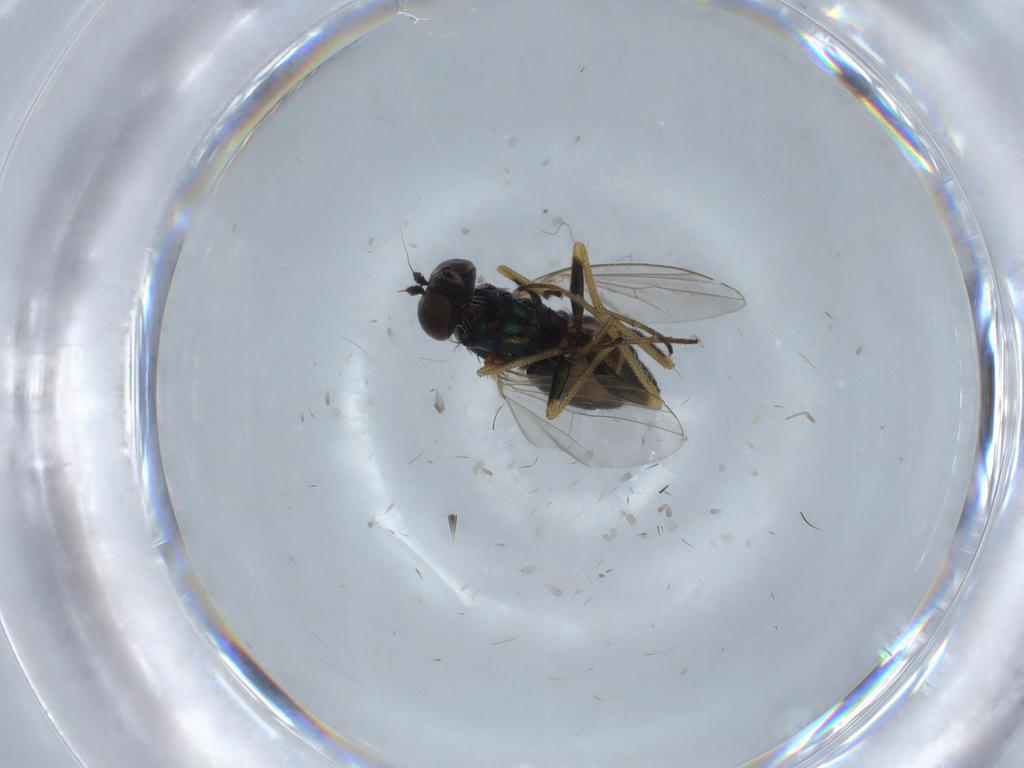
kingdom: Animalia
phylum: Arthropoda
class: Insecta
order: Diptera
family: Dolichopodidae
